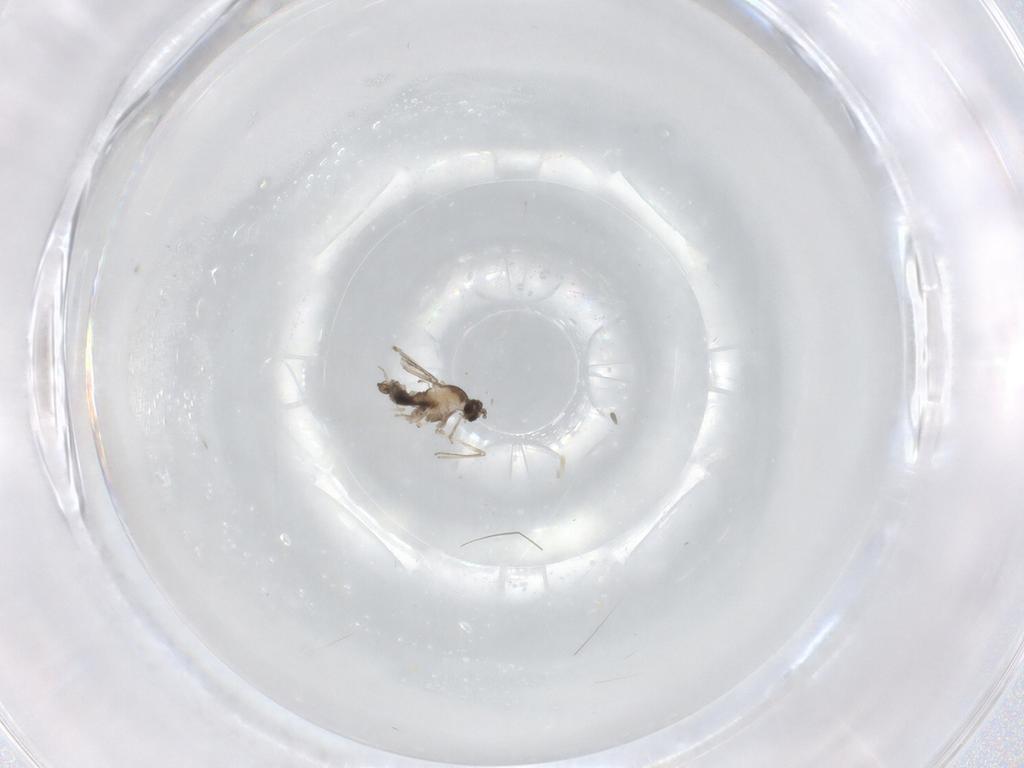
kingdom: Animalia
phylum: Arthropoda
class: Insecta
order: Diptera
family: Cecidomyiidae
